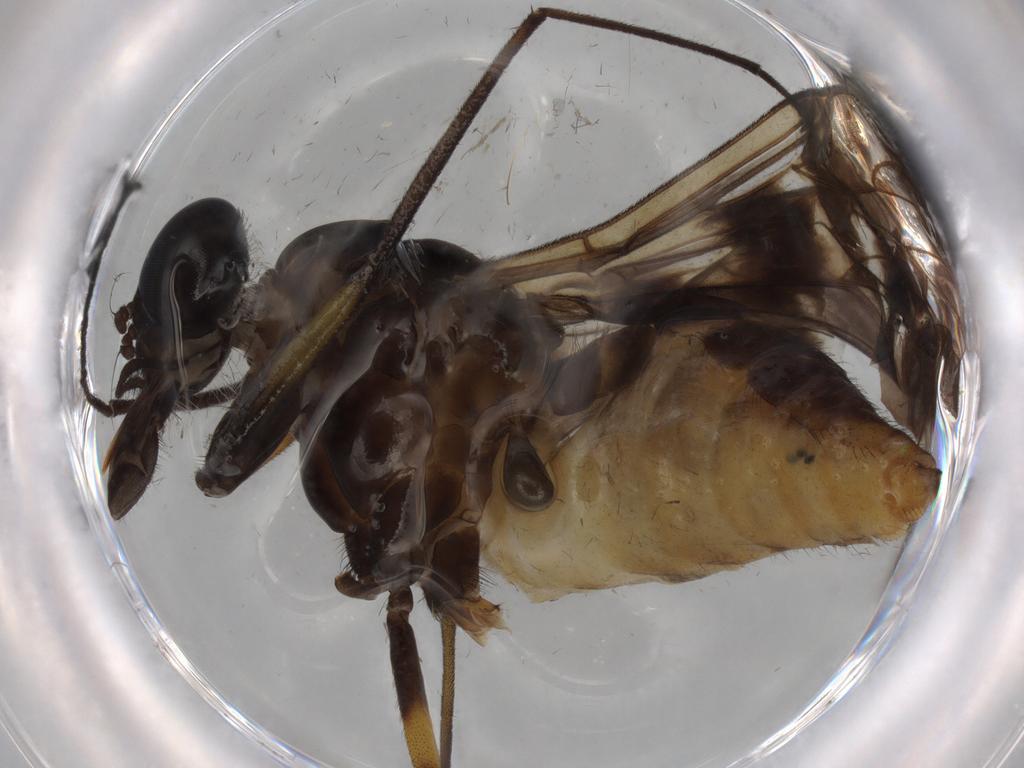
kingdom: Animalia
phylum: Arthropoda
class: Insecta
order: Diptera
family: Athericidae
